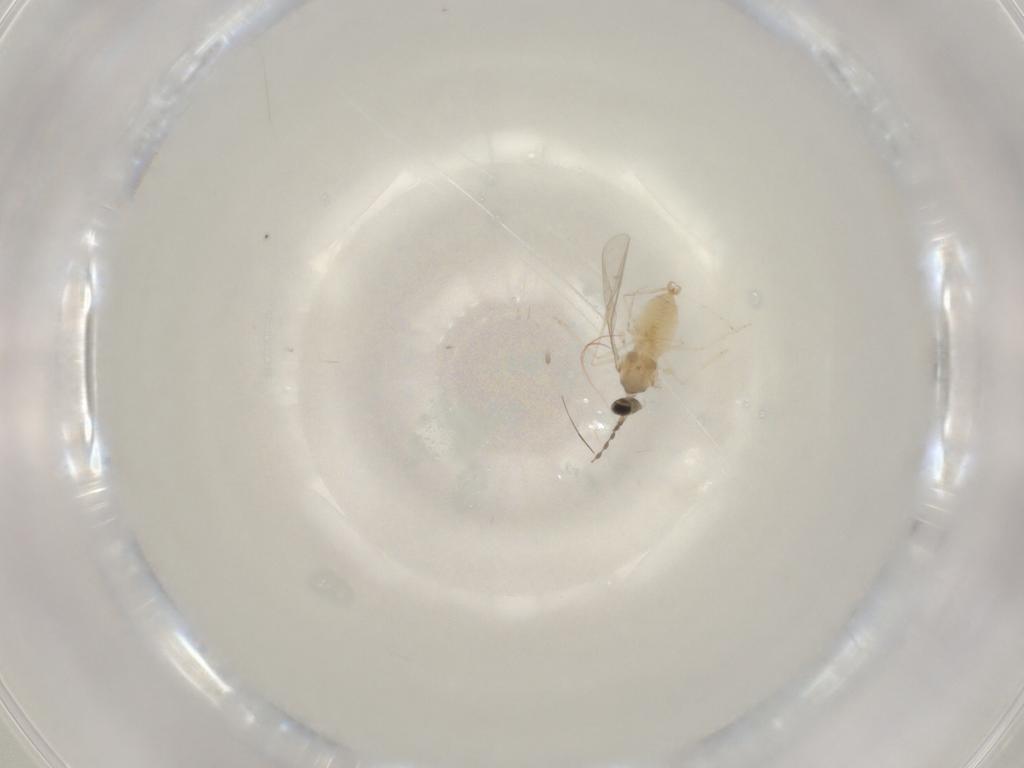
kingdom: Animalia
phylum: Arthropoda
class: Insecta
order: Diptera
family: Cecidomyiidae
